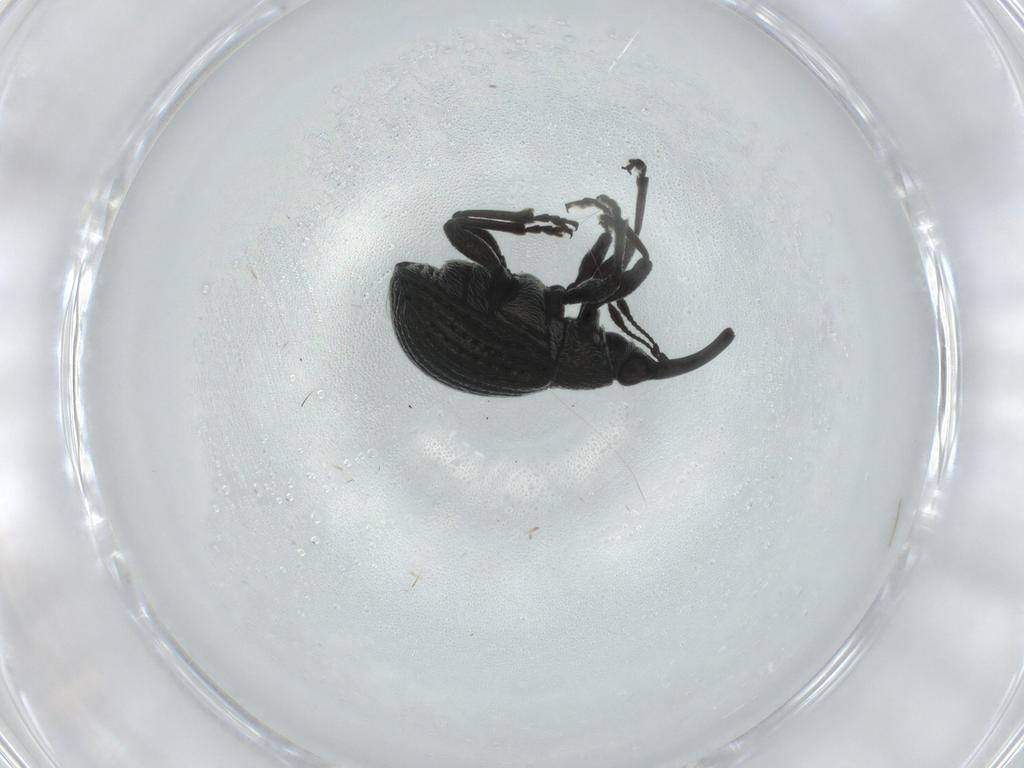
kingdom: Animalia
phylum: Arthropoda
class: Insecta
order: Coleoptera
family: Brentidae
